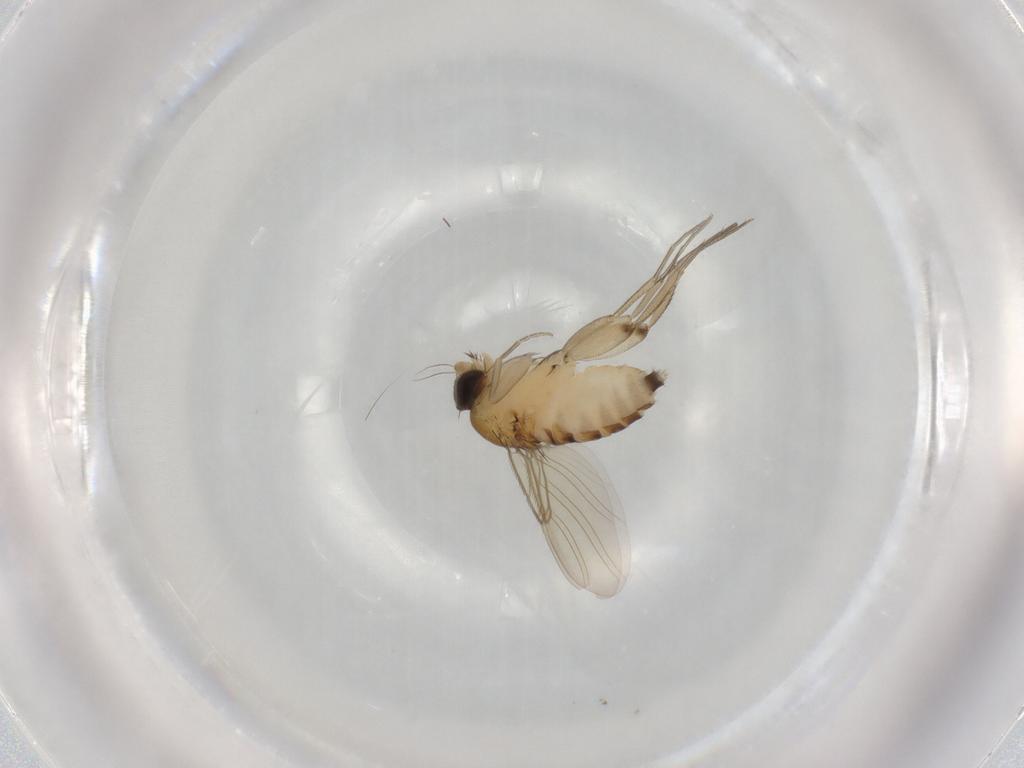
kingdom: Animalia
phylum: Arthropoda
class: Insecta
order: Diptera
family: Phoridae
